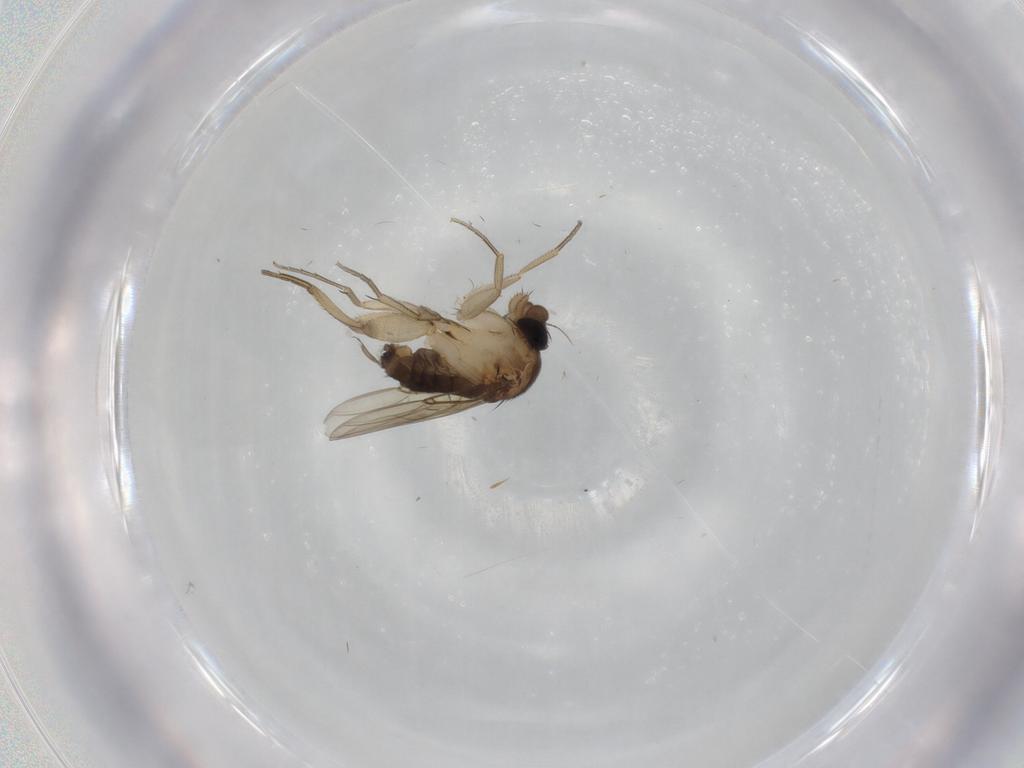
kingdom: Animalia
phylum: Arthropoda
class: Insecta
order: Diptera
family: Phoridae
